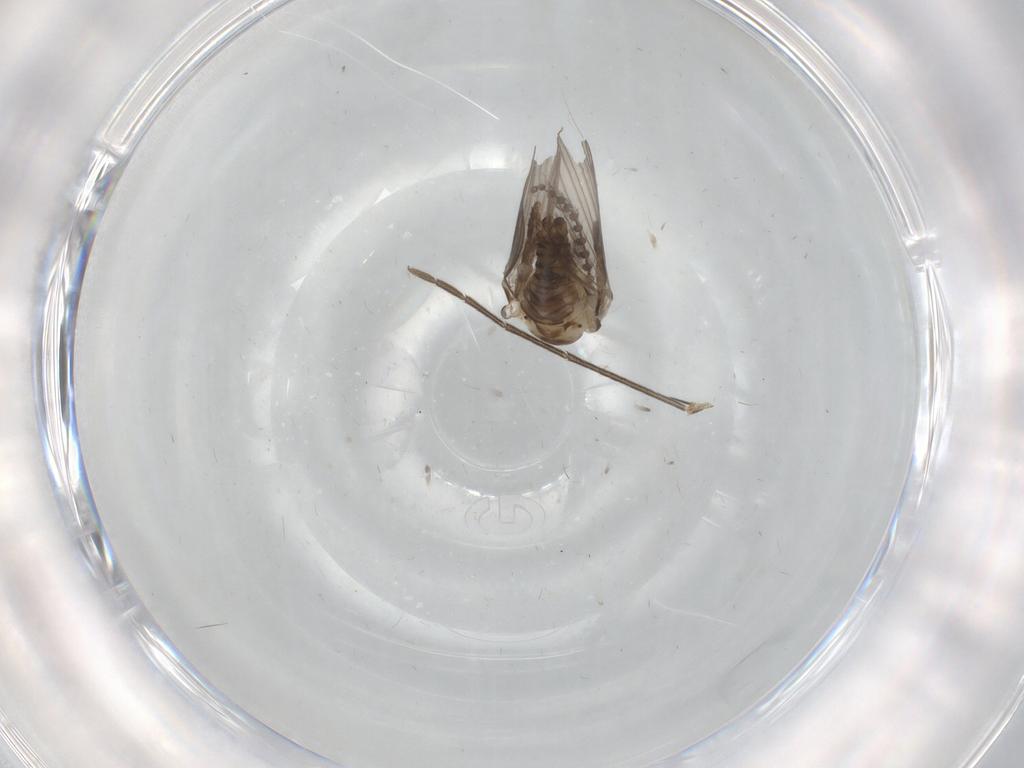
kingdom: Animalia
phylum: Arthropoda
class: Insecta
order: Diptera
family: Psychodidae
